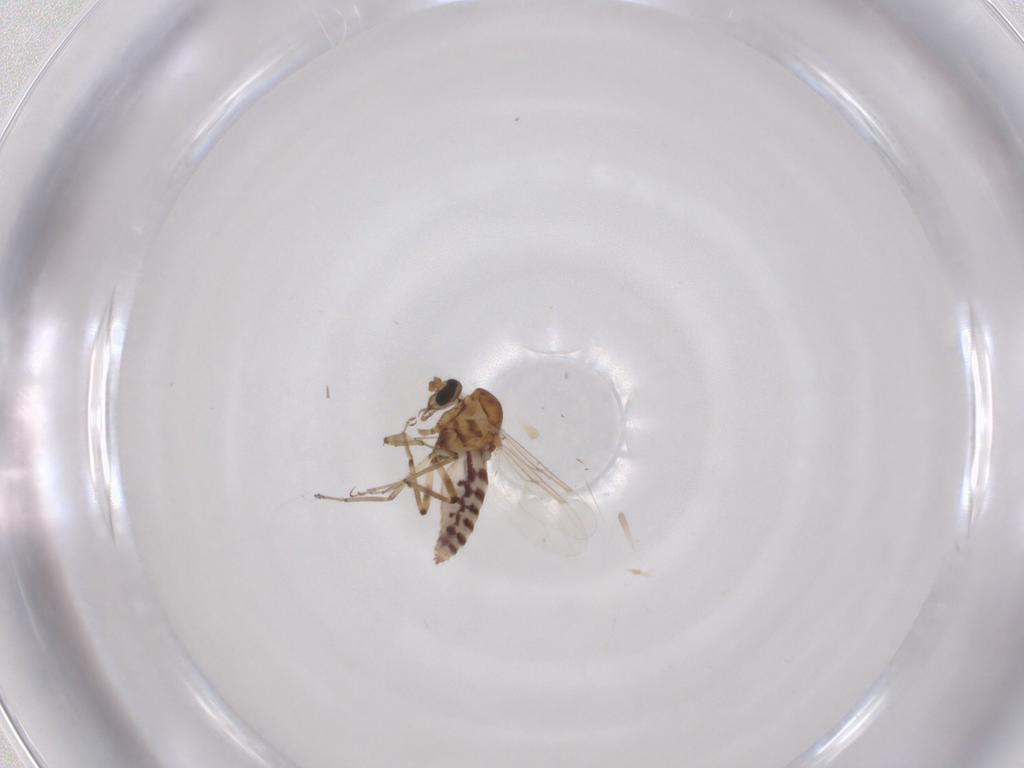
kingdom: Animalia
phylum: Arthropoda
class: Insecta
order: Diptera
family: Ceratopogonidae
